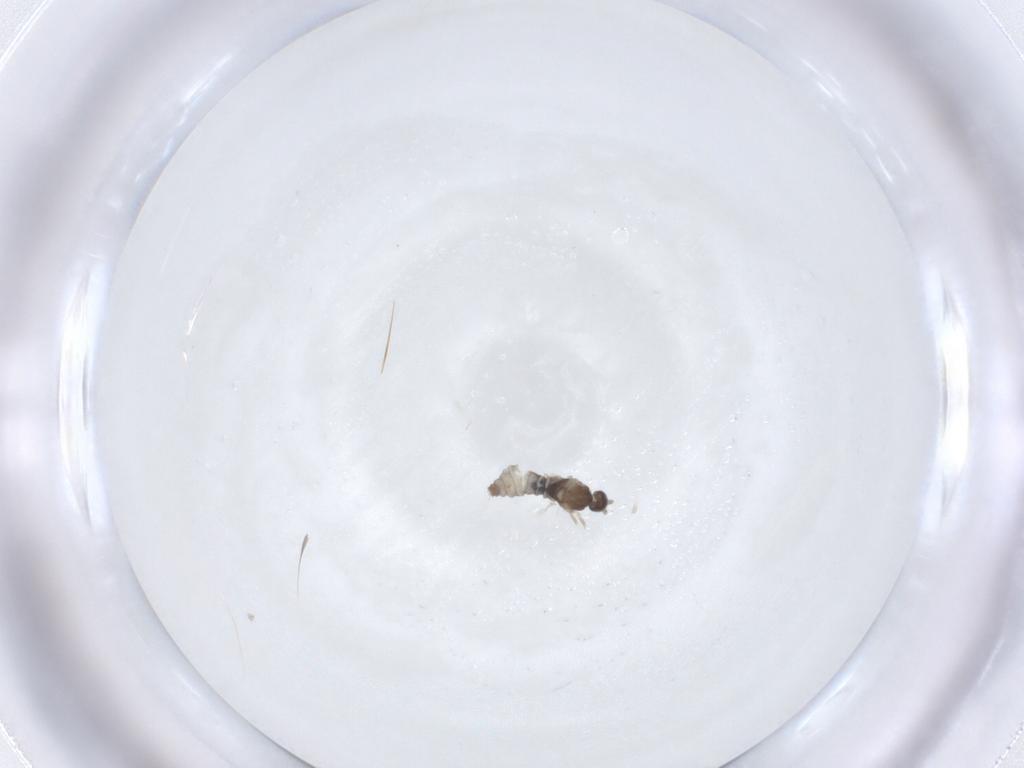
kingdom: Animalia
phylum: Arthropoda
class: Insecta
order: Diptera
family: Cecidomyiidae
